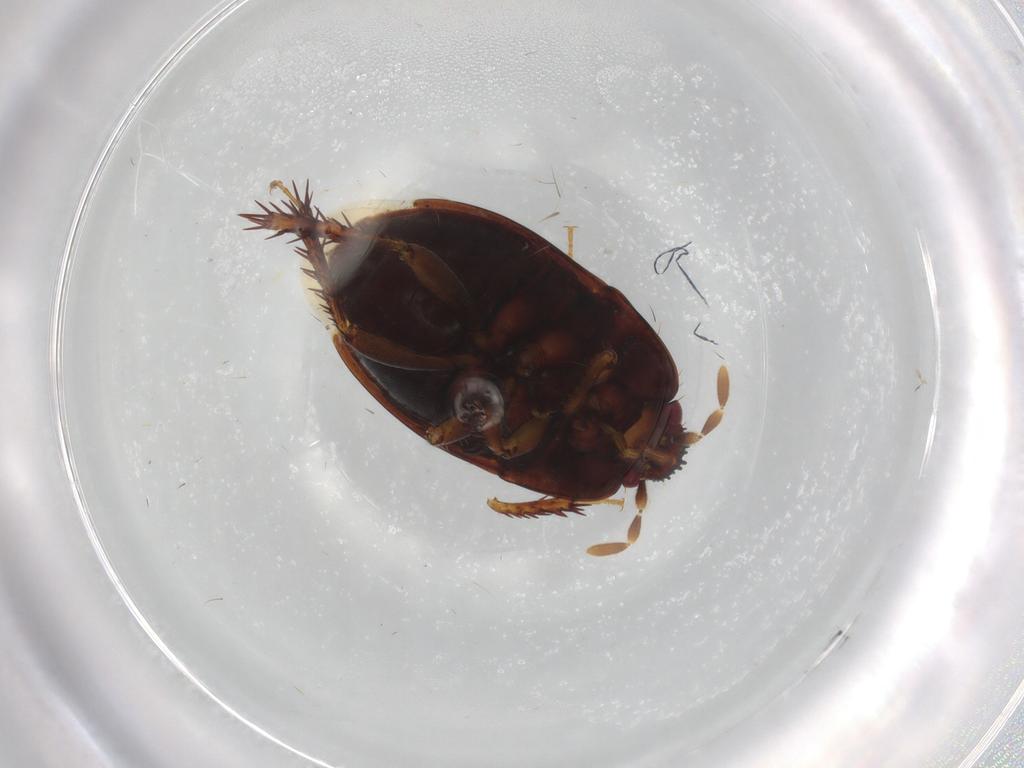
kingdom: Animalia
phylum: Arthropoda
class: Insecta
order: Hemiptera
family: Cydnidae
